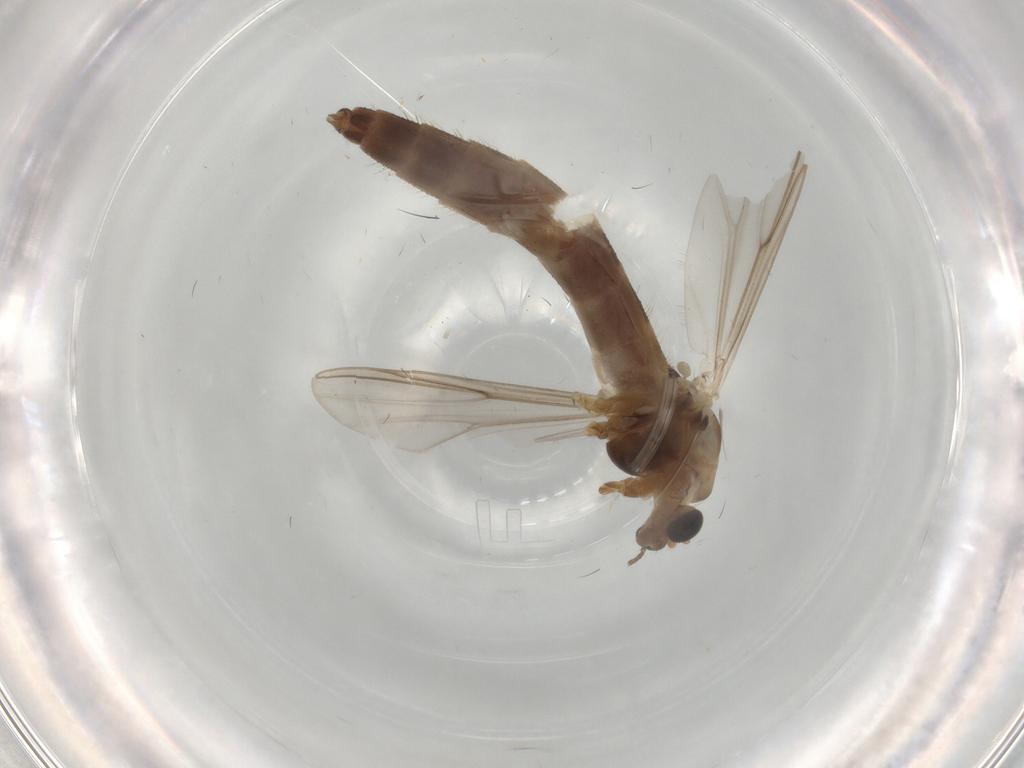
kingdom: Animalia
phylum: Arthropoda
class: Insecta
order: Diptera
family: Chironomidae
